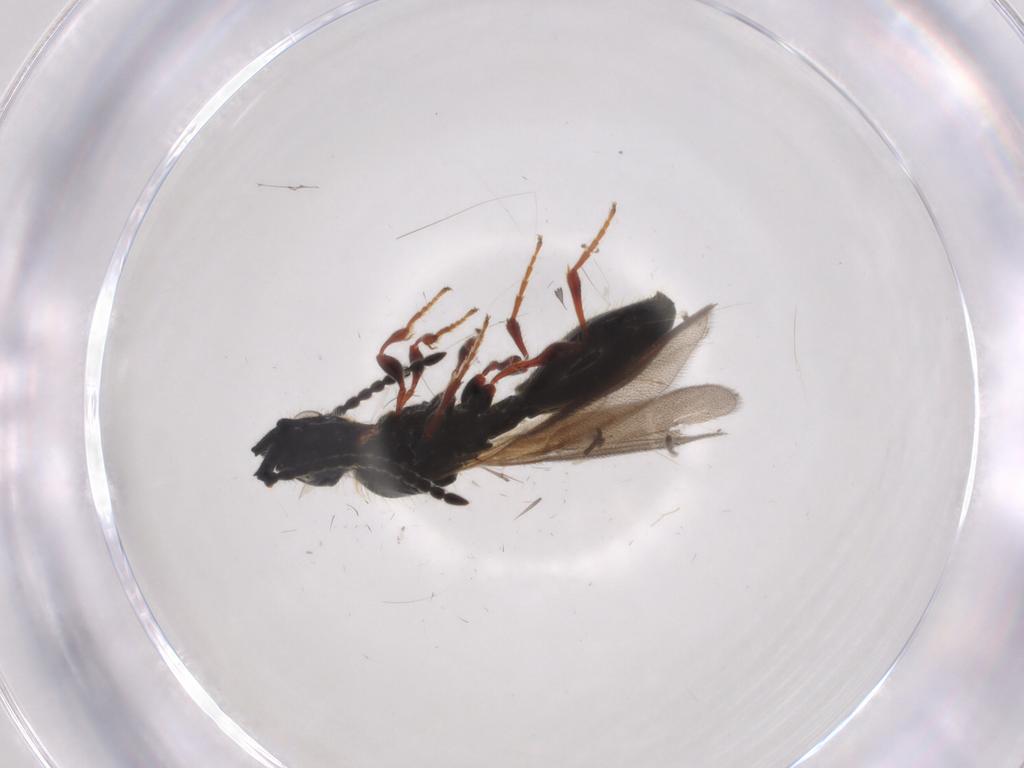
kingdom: Animalia
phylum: Arthropoda
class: Insecta
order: Hymenoptera
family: Diapriidae
